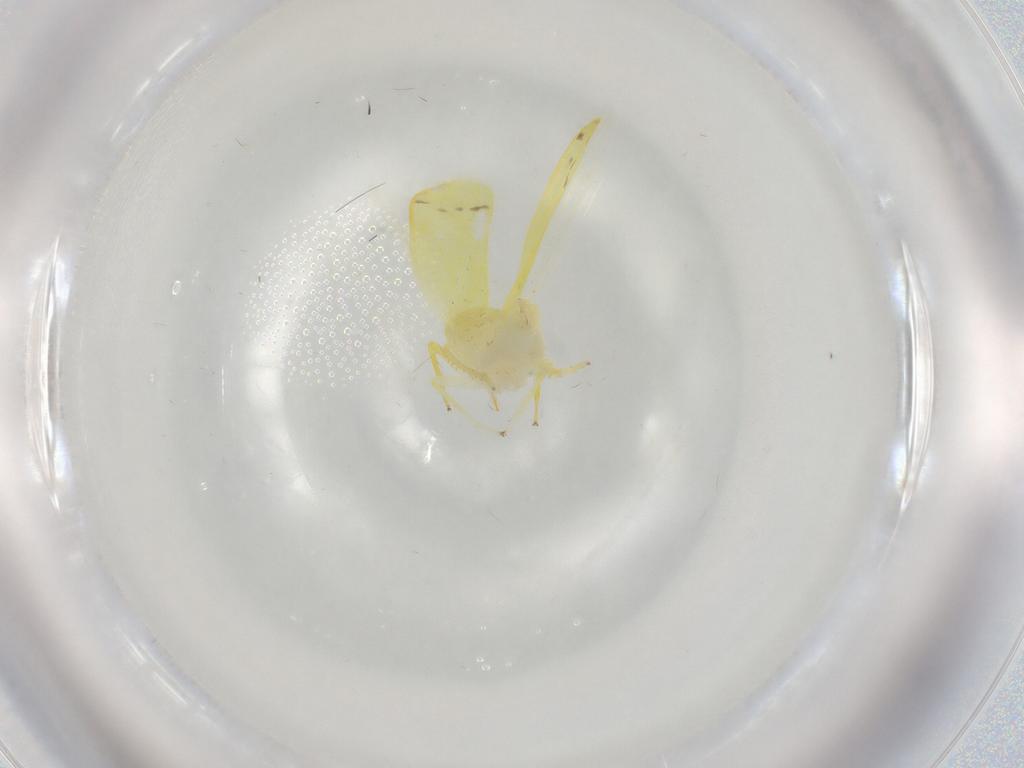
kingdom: Animalia
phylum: Arthropoda
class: Insecta
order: Hemiptera
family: Cicadellidae
